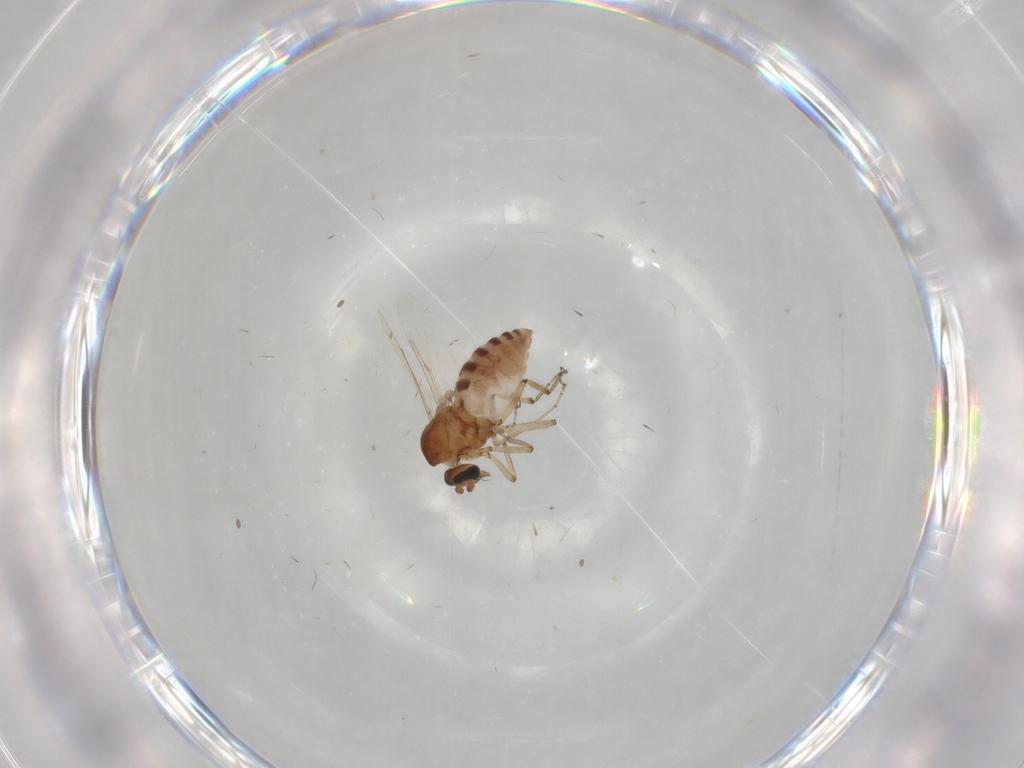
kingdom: Animalia
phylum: Arthropoda
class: Insecta
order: Diptera
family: Ceratopogonidae
